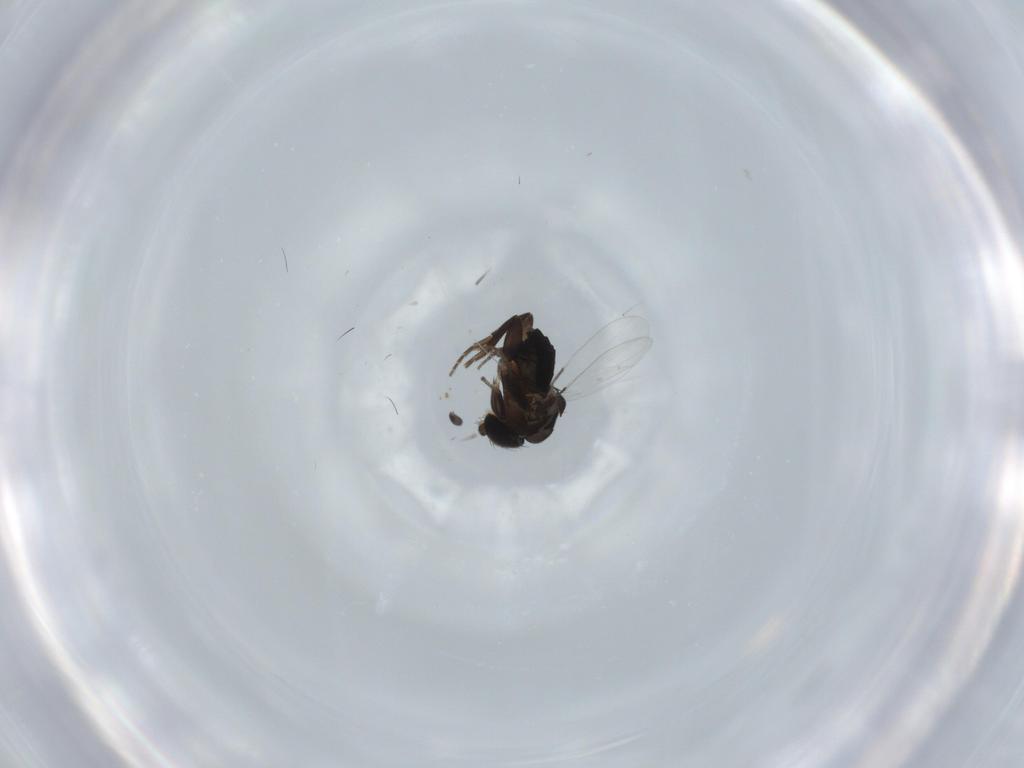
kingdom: Animalia
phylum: Arthropoda
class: Insecta
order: Diptera
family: Phoridae
